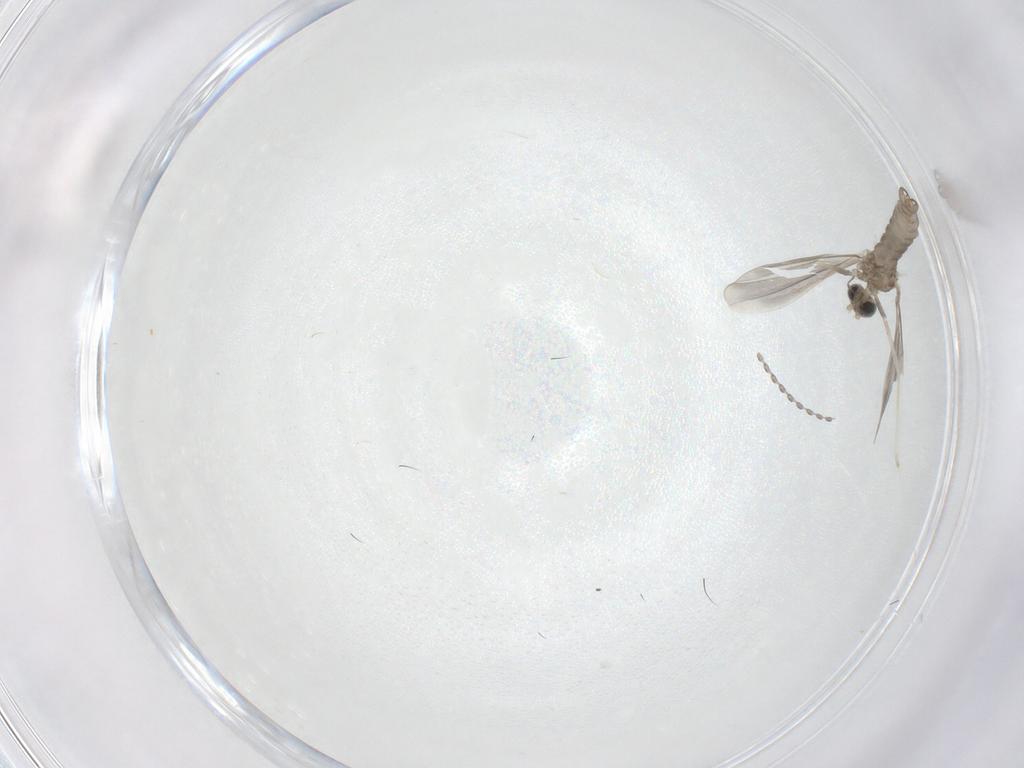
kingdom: Animalia
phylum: Arthropoda
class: Insecta
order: Diptera
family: Cecidomyiidae
